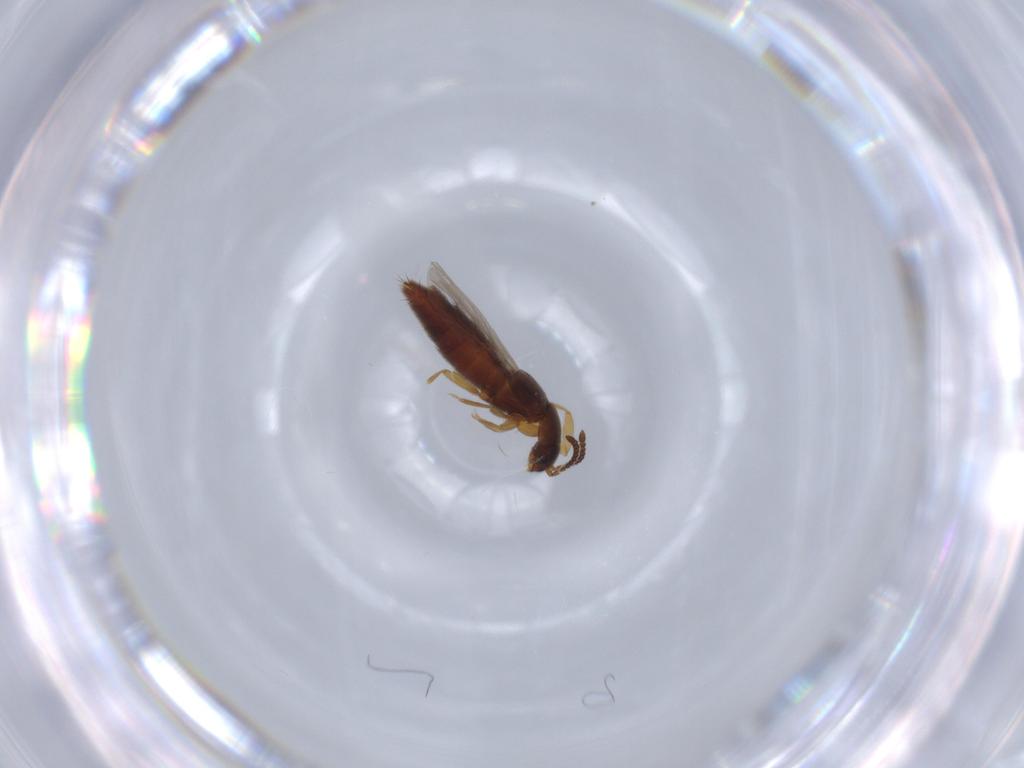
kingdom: Animalia
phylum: Arthropoda
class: Insecta
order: Coleoptera
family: Staphylinidae
